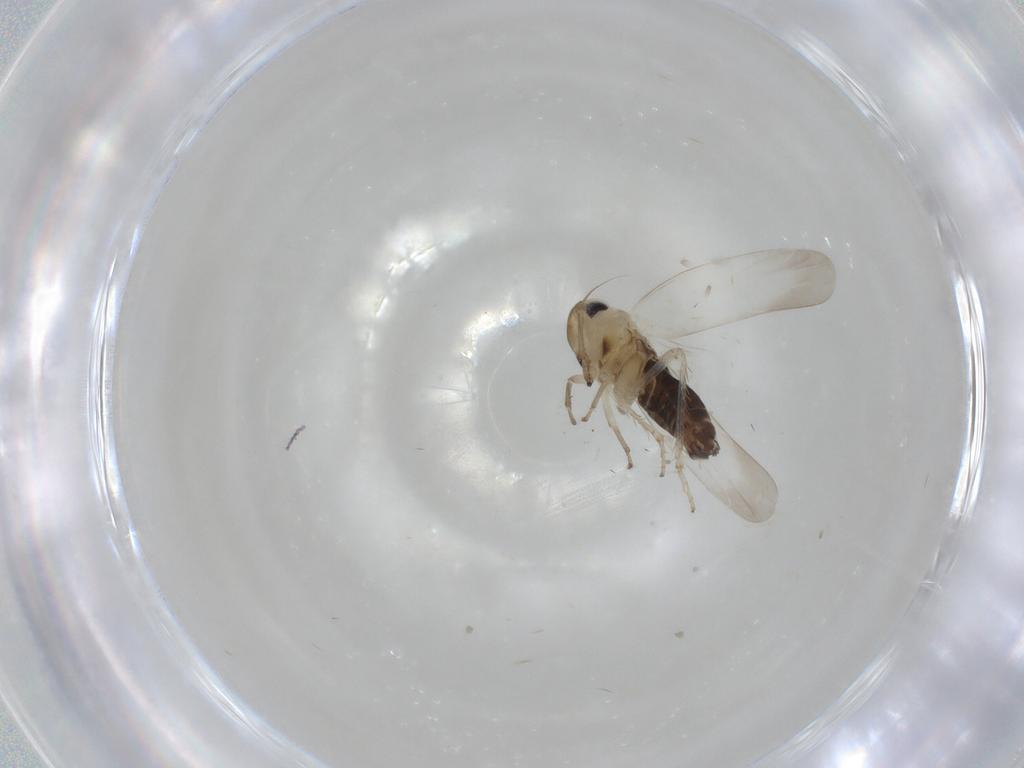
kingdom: Animalia
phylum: Arthropoda
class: Insecta
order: Hemiptera
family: Cicadellidae
